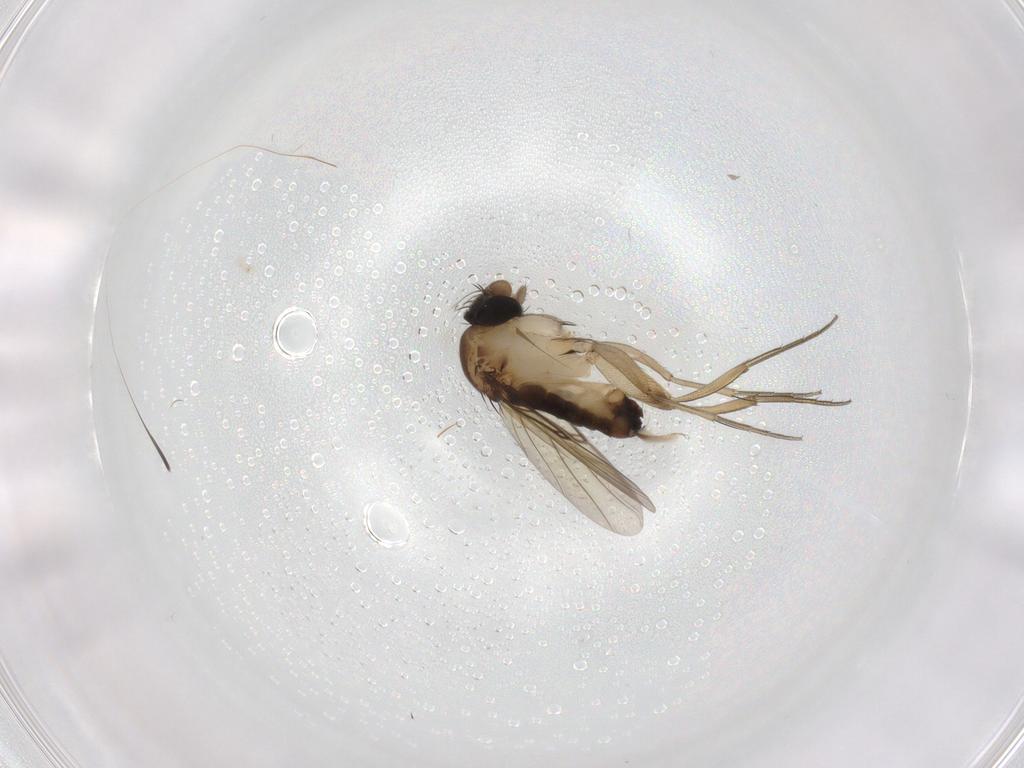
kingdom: Animalia
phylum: Arthropoda
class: Insecta
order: Diptera
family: Phoridae
